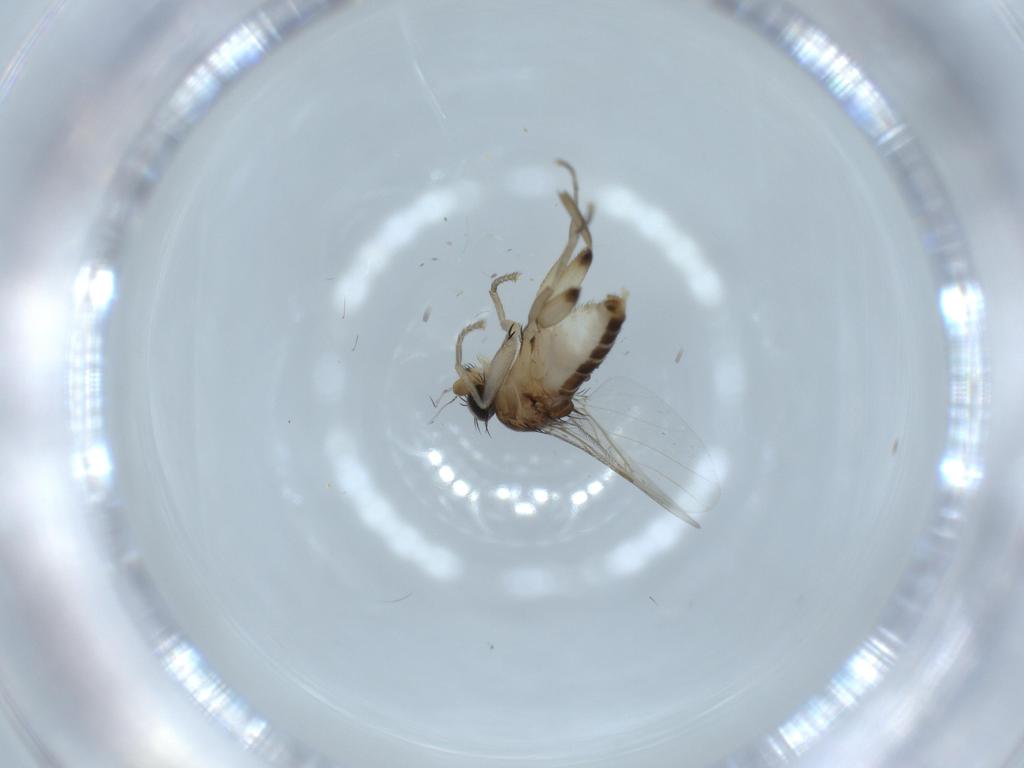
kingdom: Animalia
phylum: Arthropoda
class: Insecta
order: Diptera
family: Phoridae
